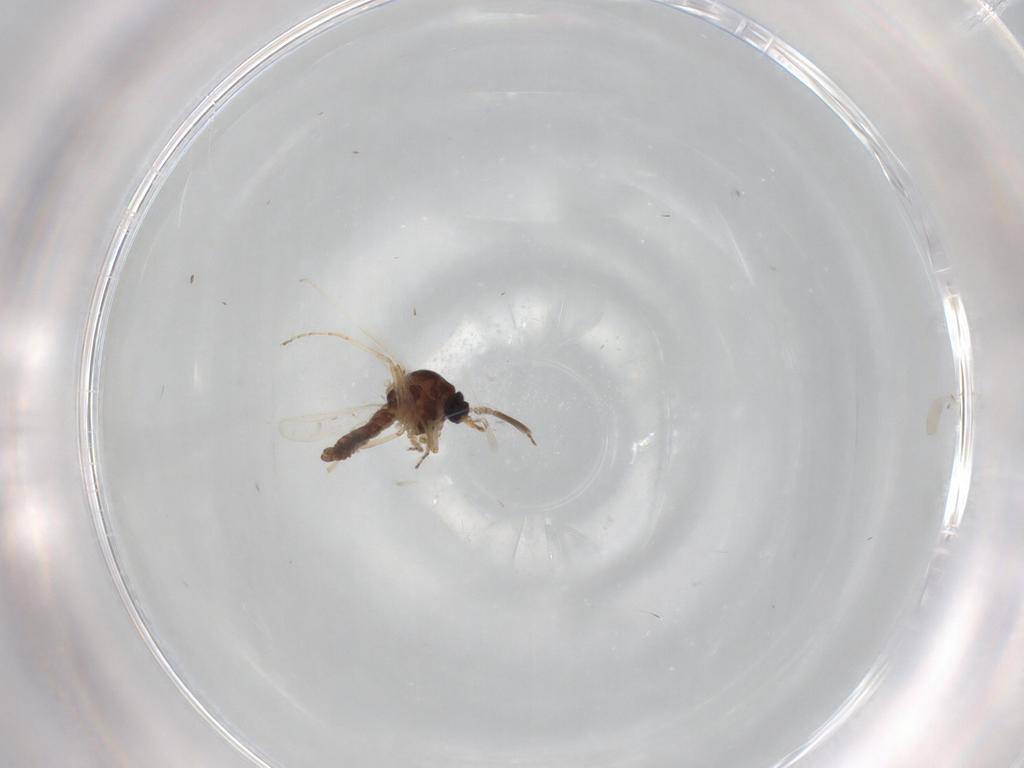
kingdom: Animalia
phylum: Arthropoda
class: Insecta
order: Diptera
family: Ceratopogonidae
